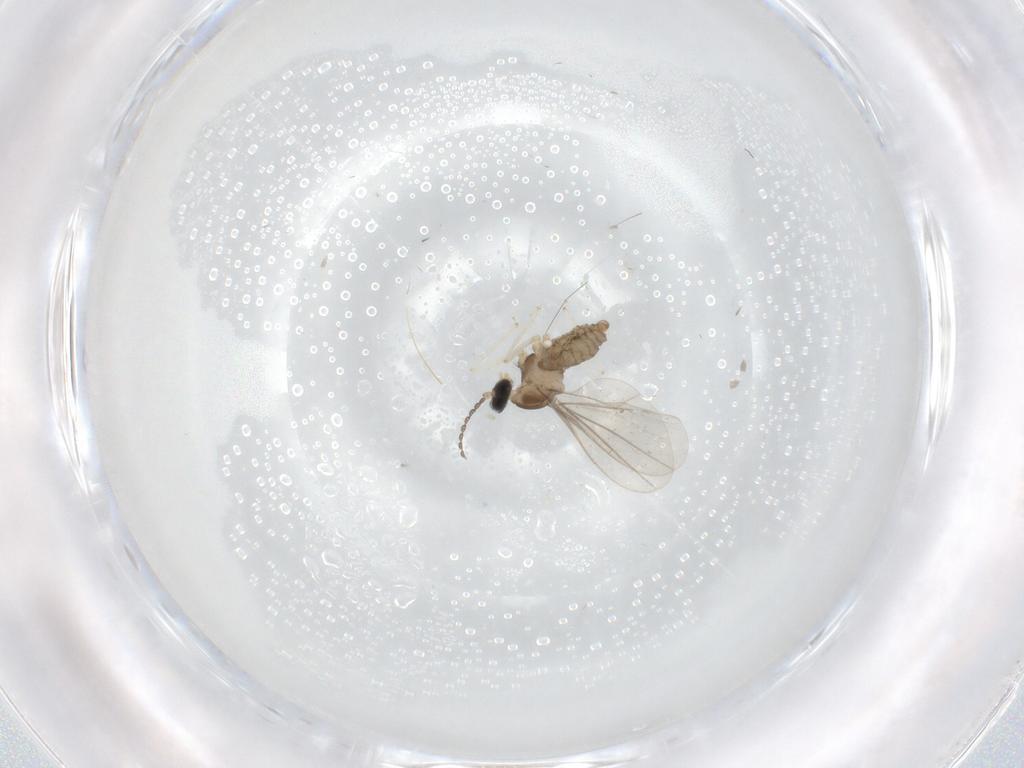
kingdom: Animalia
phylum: Arthropoda
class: Insecta
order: Diptera
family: Cecidomyiidae
